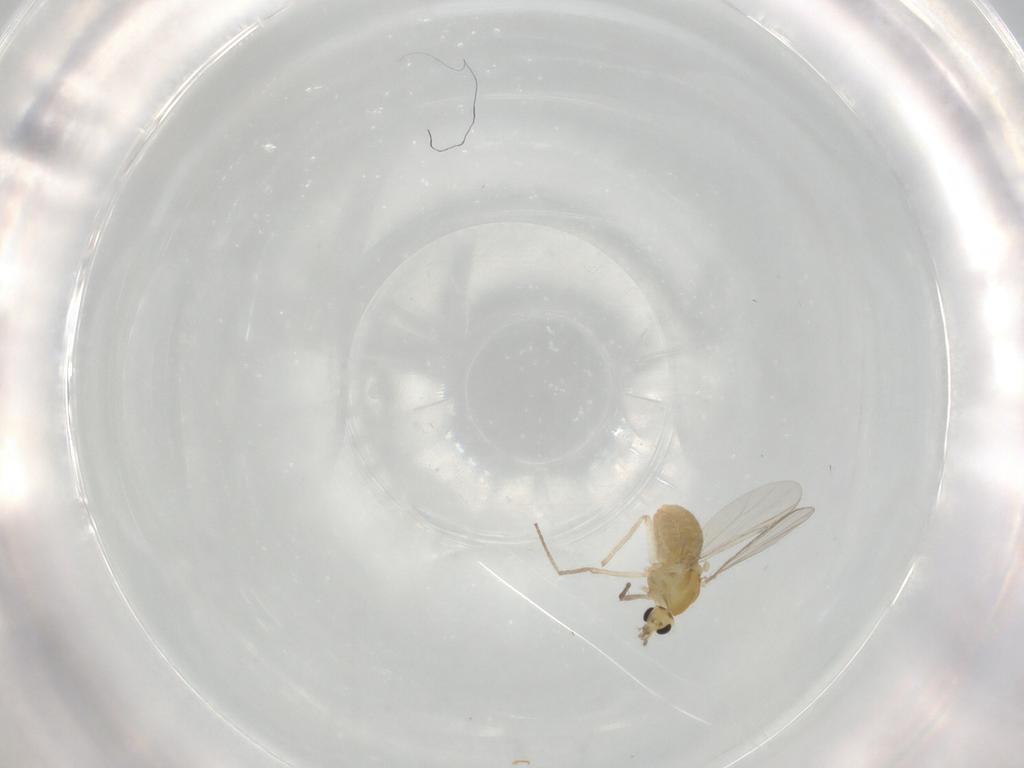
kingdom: Animalia
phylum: Arthropoda
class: Insecta
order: Diptera
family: Chironomidae
